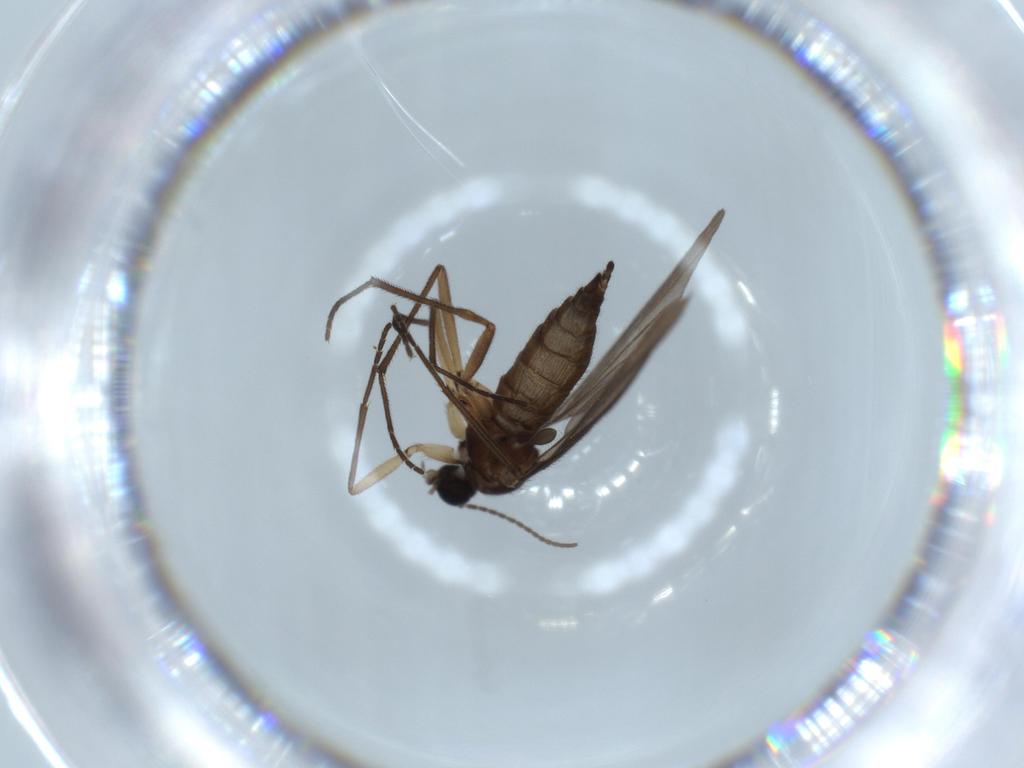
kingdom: Animalia
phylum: Arthropoda
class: Insecta
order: Diptera
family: Sciaridae
